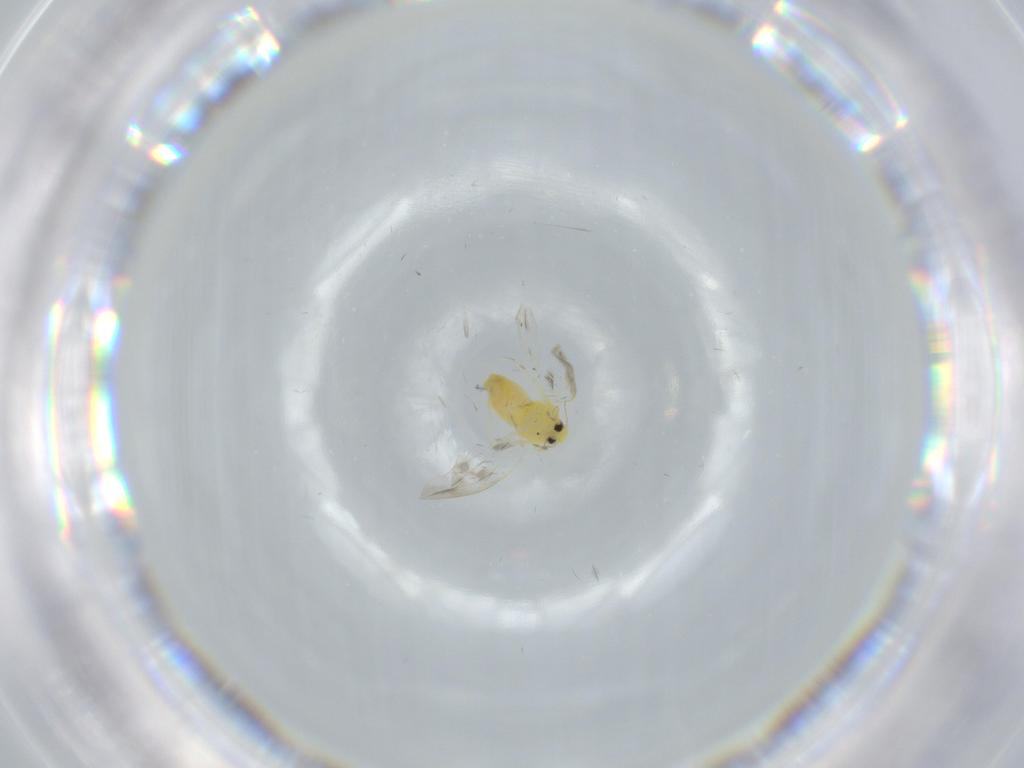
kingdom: Animalia
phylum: Arthropoda
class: Insecta
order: Hemiptera
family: Aleyrodidae
